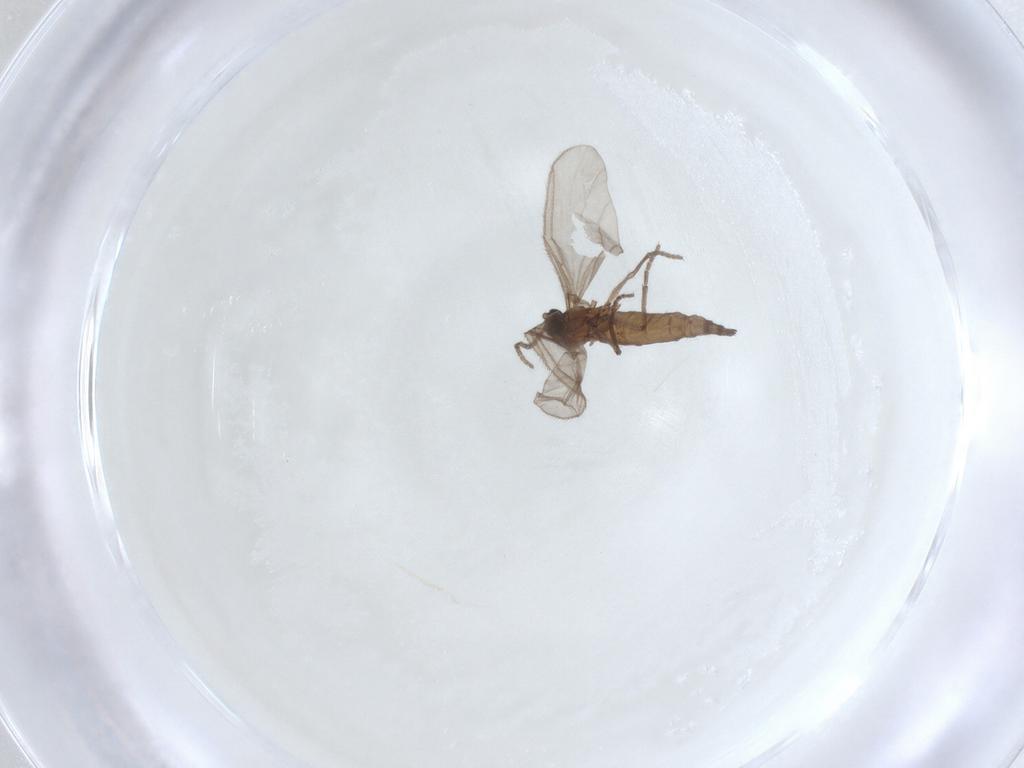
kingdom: Animalia
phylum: Arthropoda
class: Insecta
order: Diptera
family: Sciaridae
